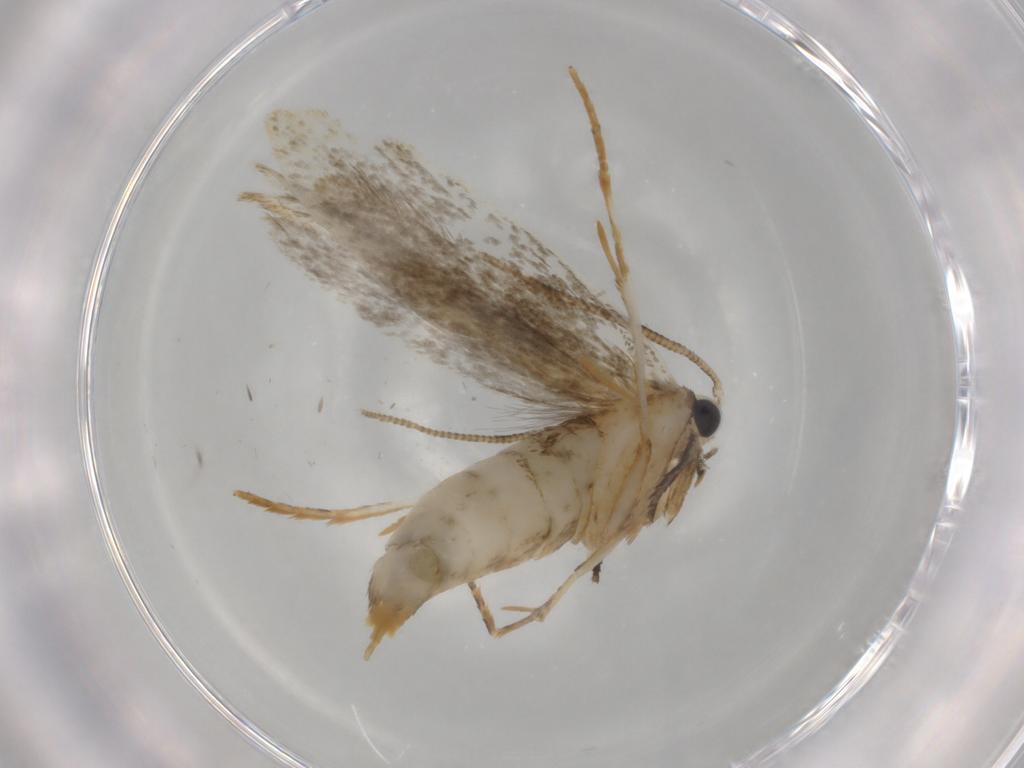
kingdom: Animalia
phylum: Arthropoda
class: Insecta
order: Lepidoptera
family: Tineidae
